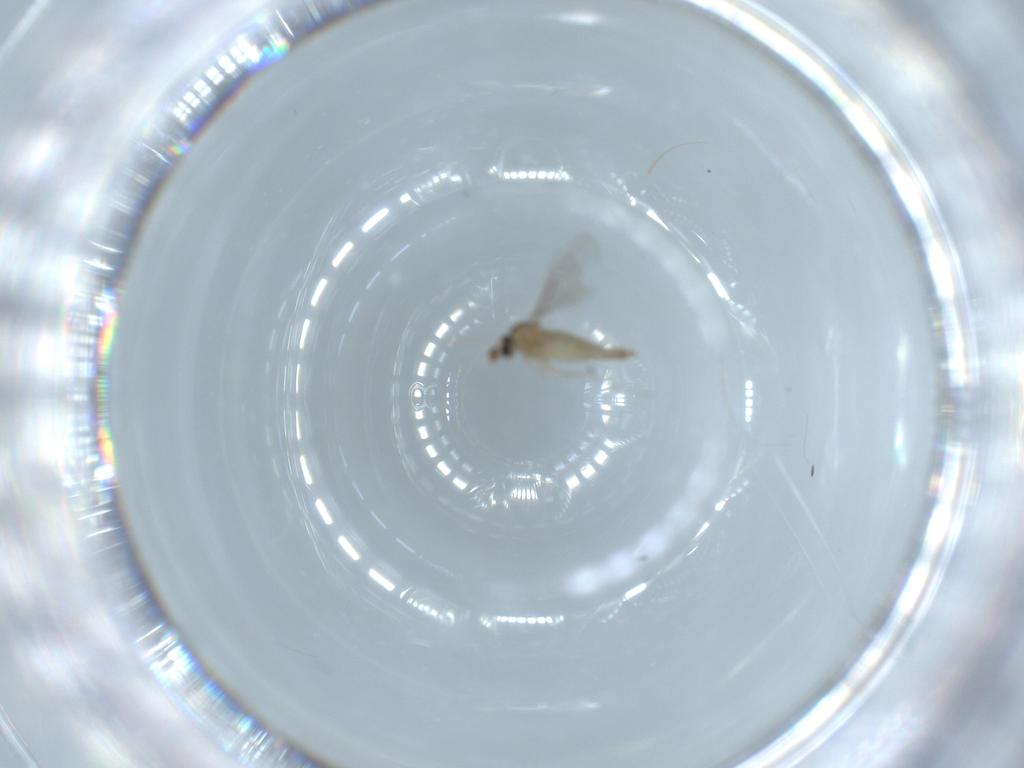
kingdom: Animalia
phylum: Arthropoda
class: Insecta
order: Diptera
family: Cecidomyiidae
